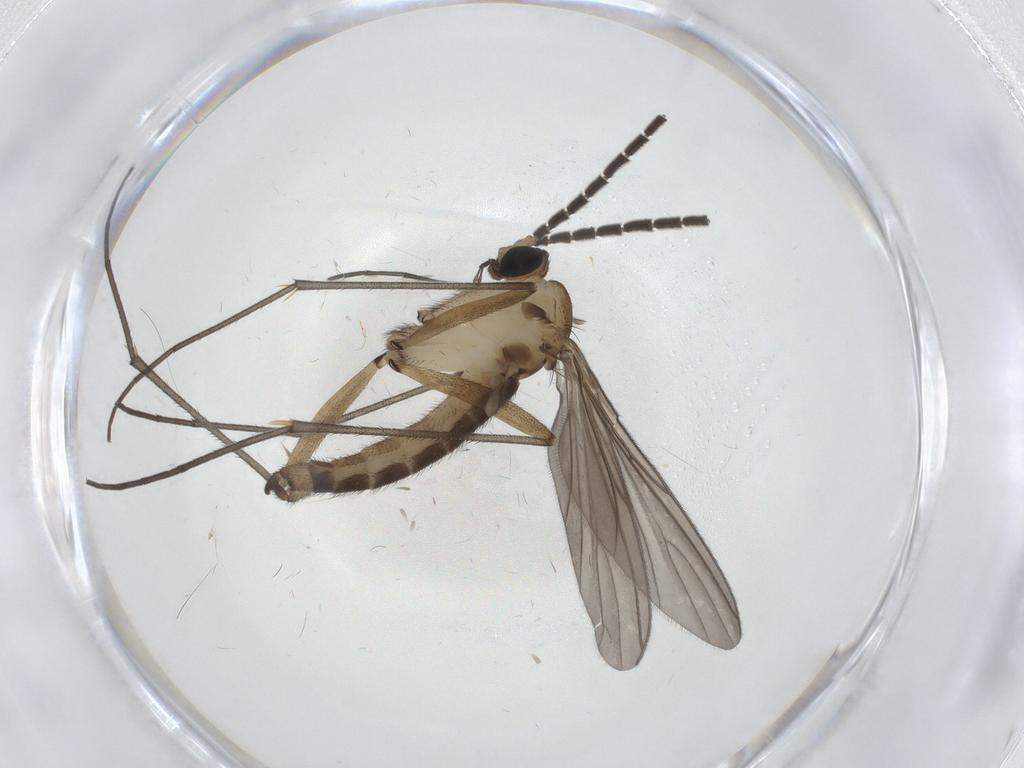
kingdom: Animalia
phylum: Arthropoda
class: Insecta
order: Diptera
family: Sciaridae
